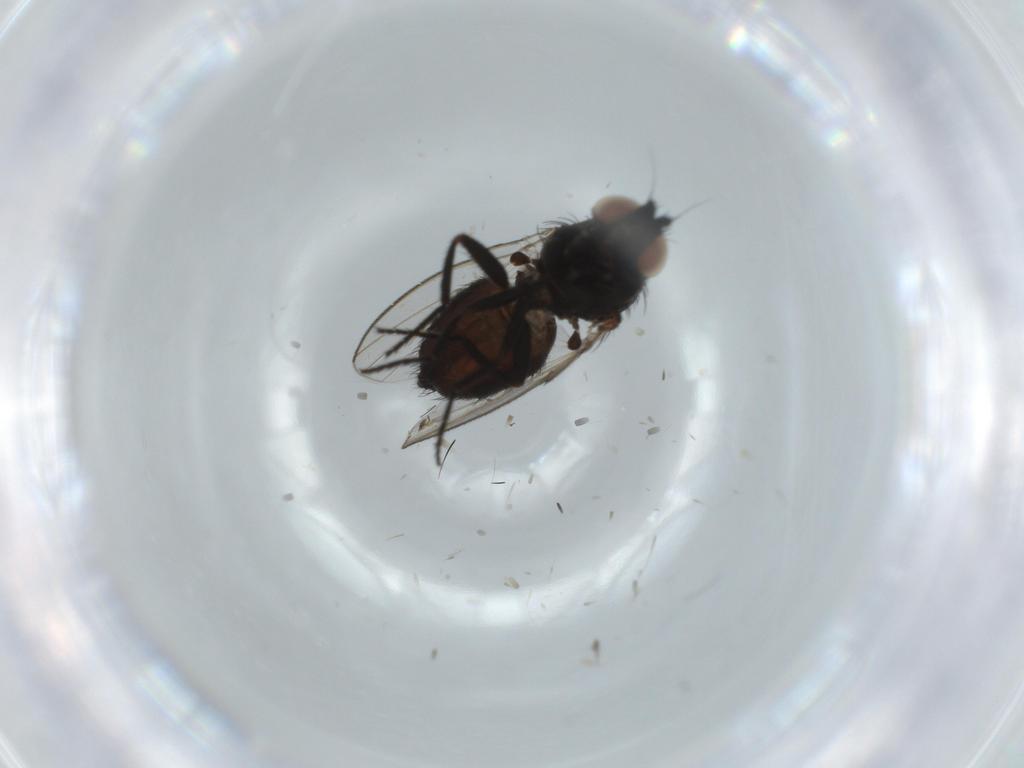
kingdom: Animalia
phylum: Arthropoda
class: Insecta
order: Diptera
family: Milichiidae
